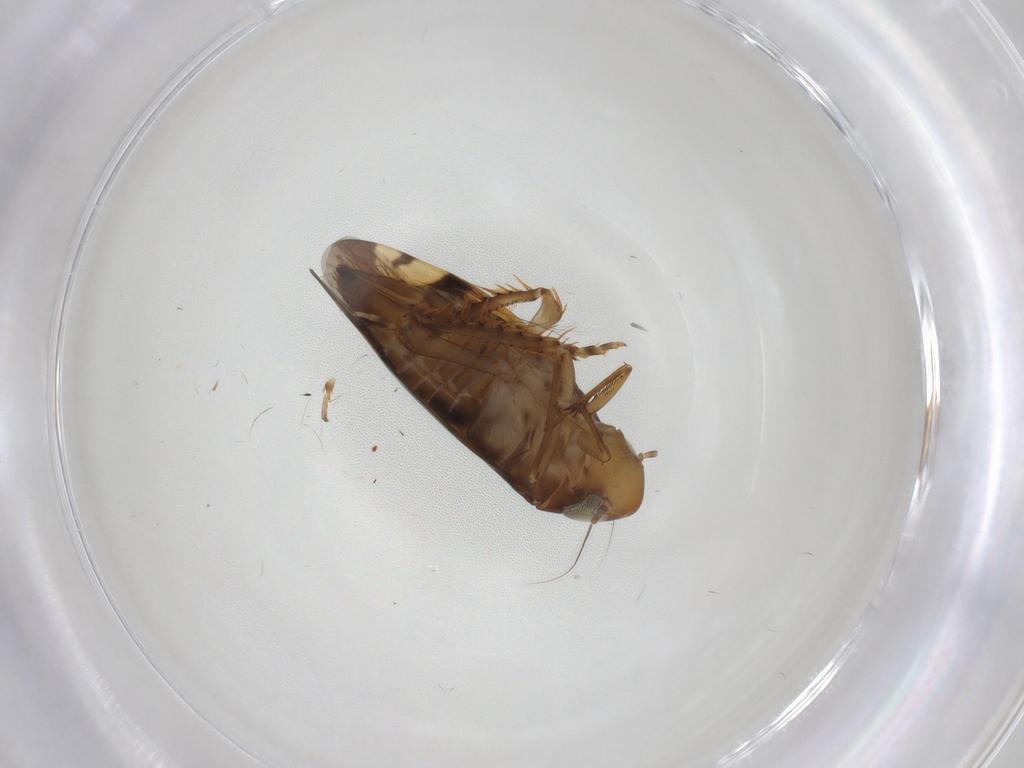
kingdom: Animalia
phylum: Arthropoda
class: Insecta
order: Hemiptera
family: Cicadellidae
